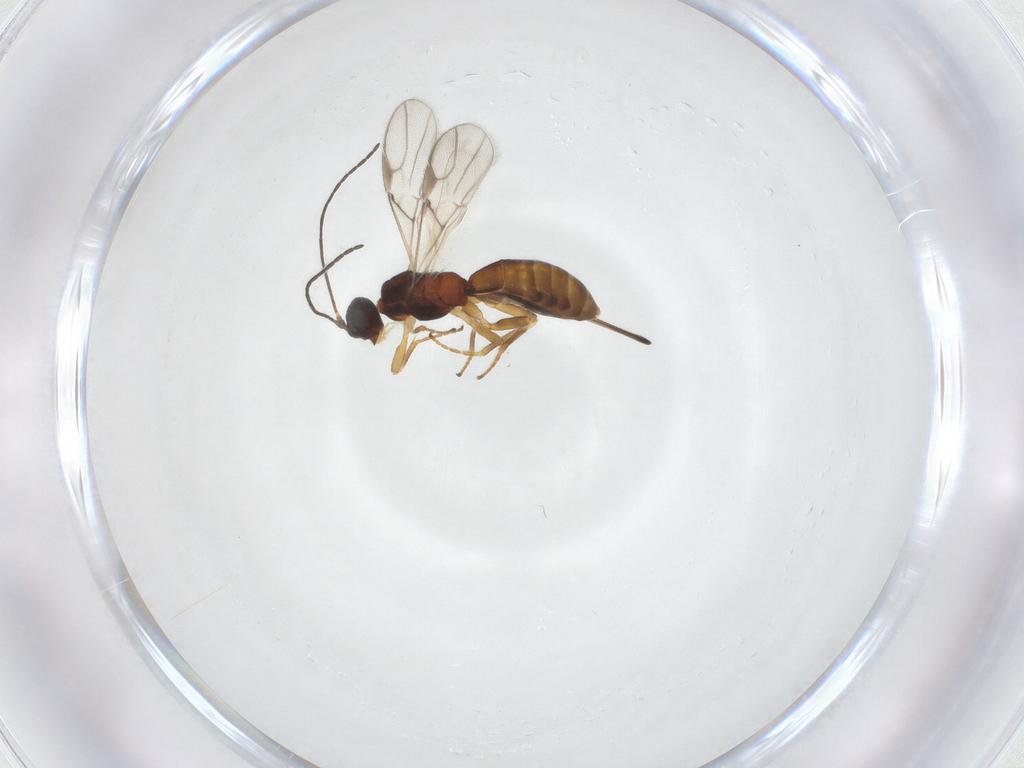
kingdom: Animalia
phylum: Arthropoda
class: Insecta
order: Hymenoptera
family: Braconidae
